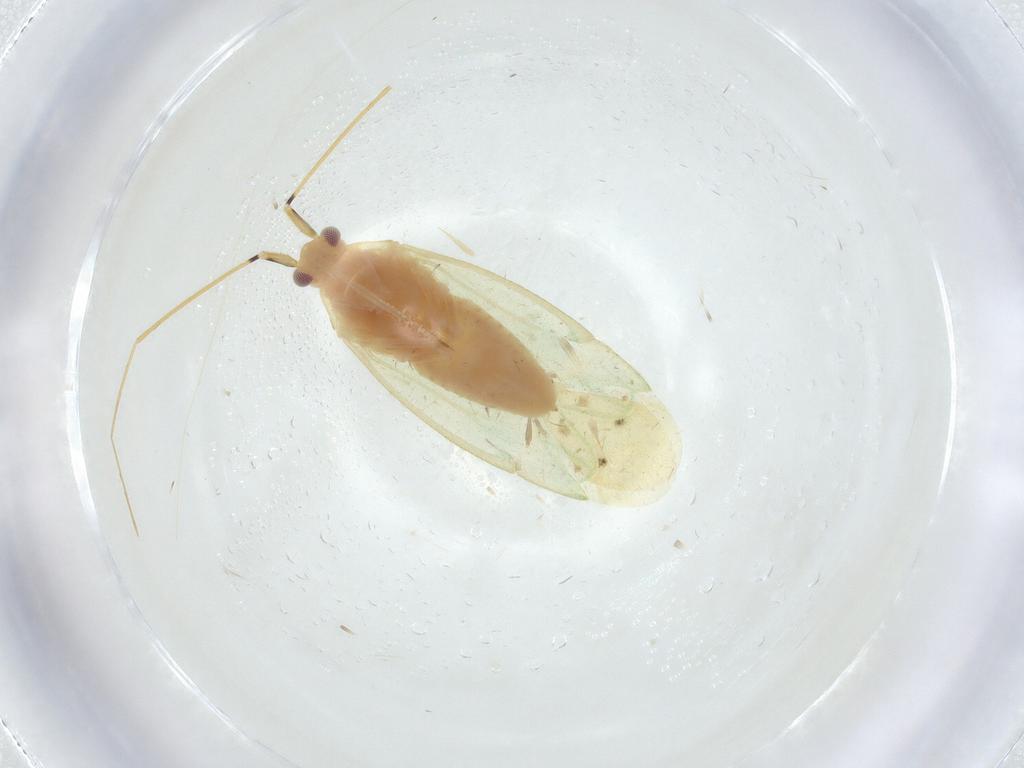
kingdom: Animalia
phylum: Arthropoda
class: Insecta
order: Hemiptera
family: Miridae
